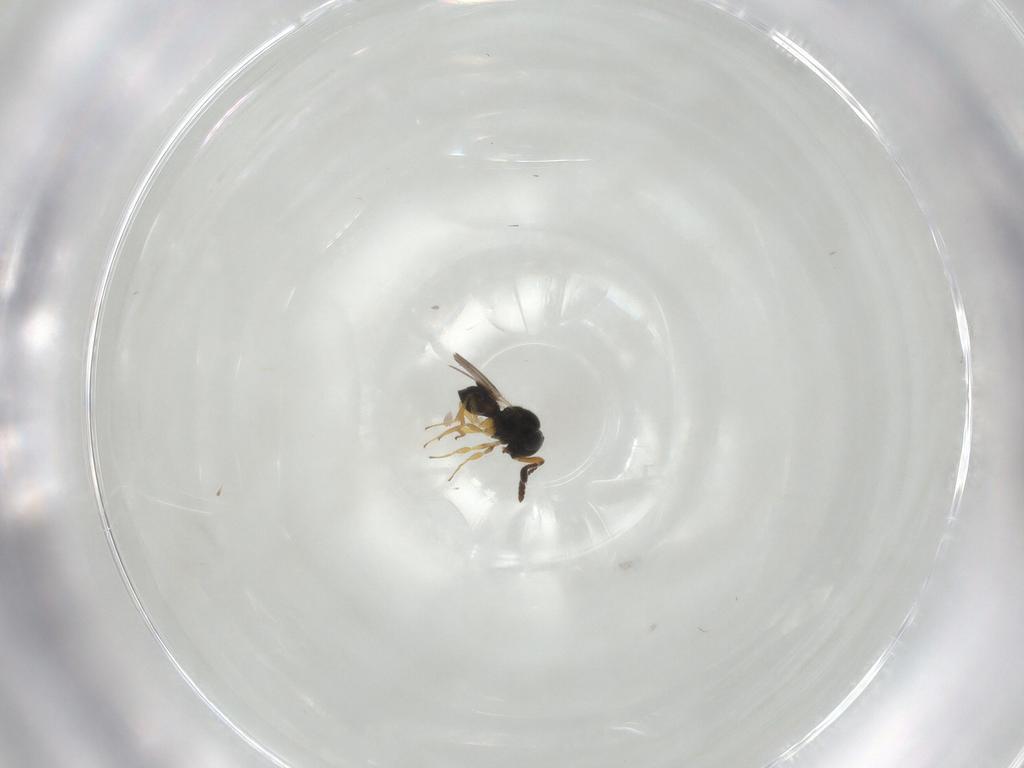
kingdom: Animalia
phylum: Arthropoda
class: Insecta
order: Hymenoptera
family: Scelionidae
